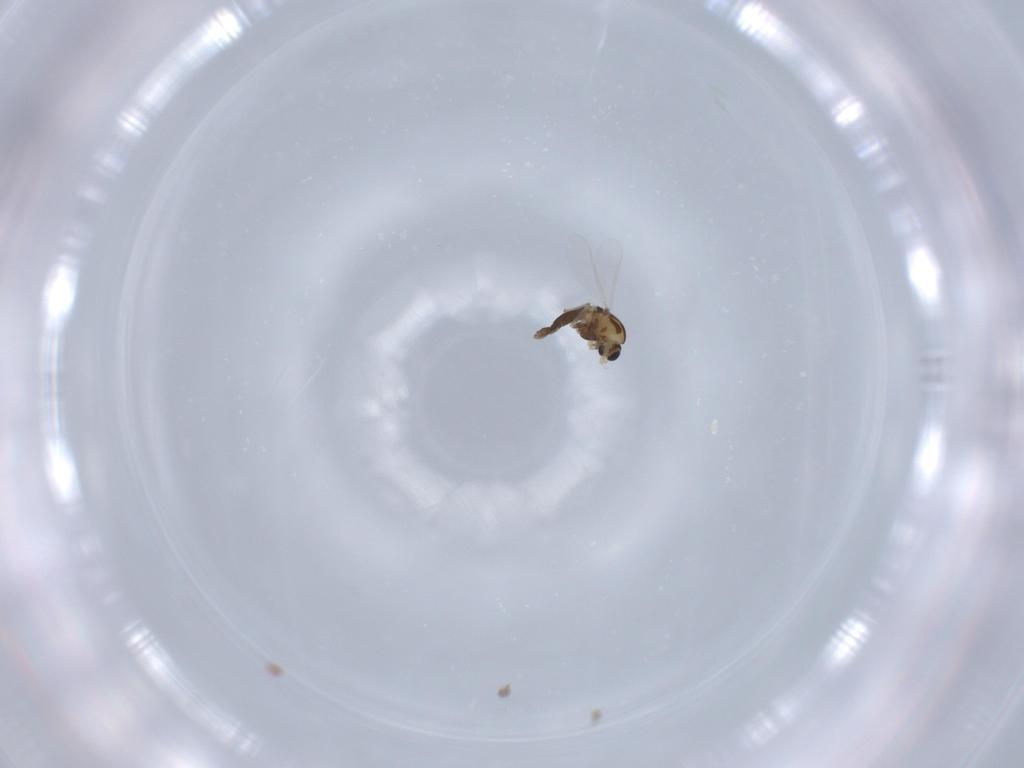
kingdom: Animalia
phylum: Arthropoda
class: Insecta
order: Diptera
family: Chironomidae
